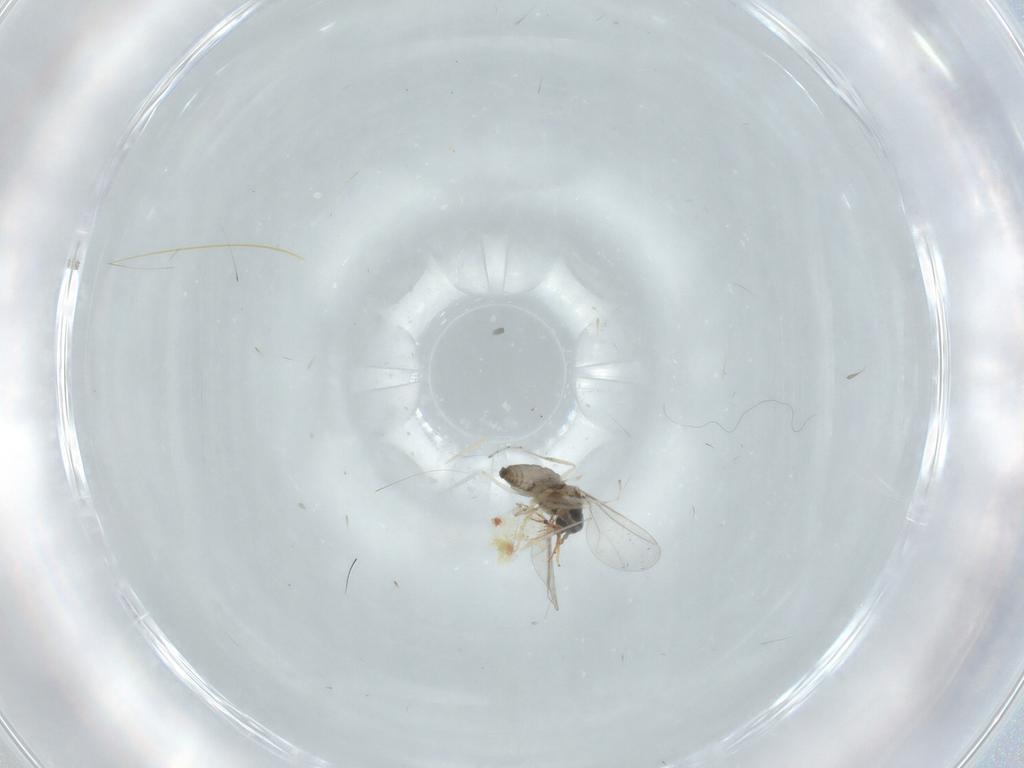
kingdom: Animalia
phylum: Arthropoda
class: Insecta
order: Diptera
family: Cecidomyiidae
